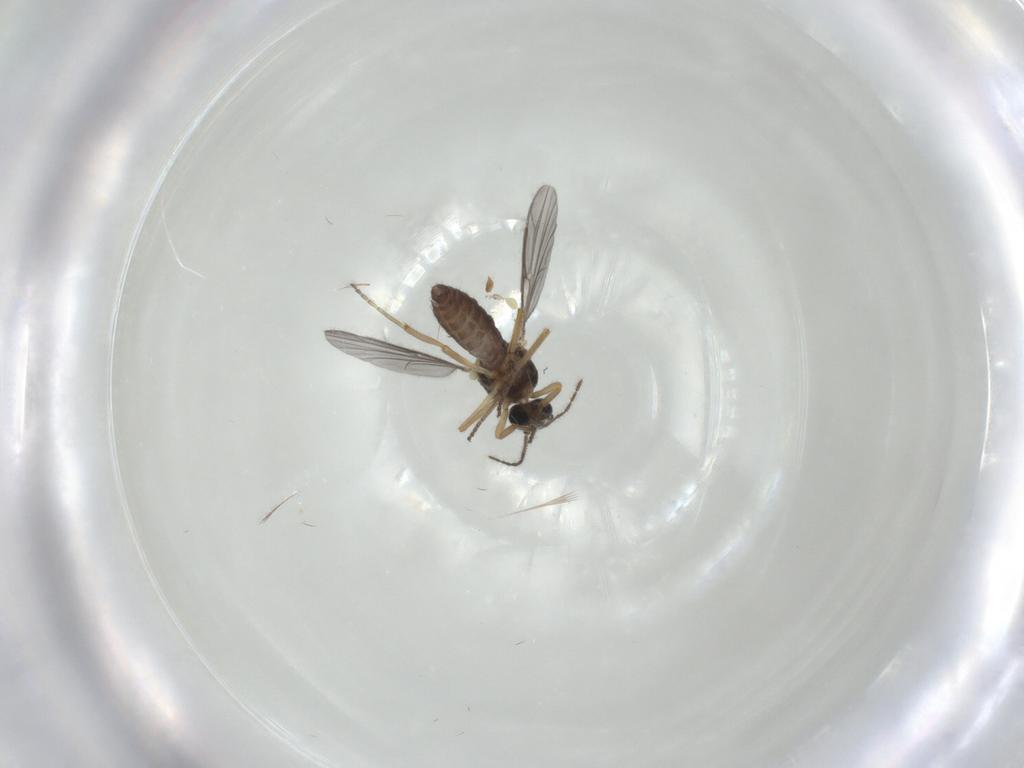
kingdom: Animalia
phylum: Arthropoda
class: Insecta
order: Diptera
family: Ceratopogonidae
